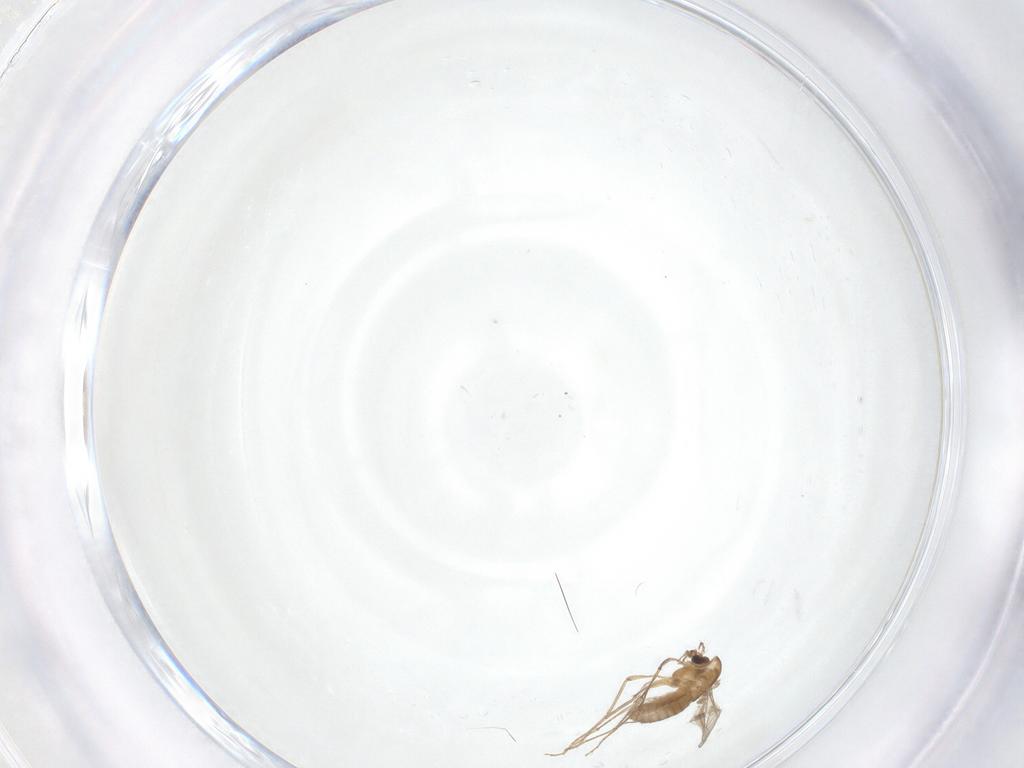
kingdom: Animalia
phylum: Arthropoda
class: Insecta
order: Diptera
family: Chironomidae
